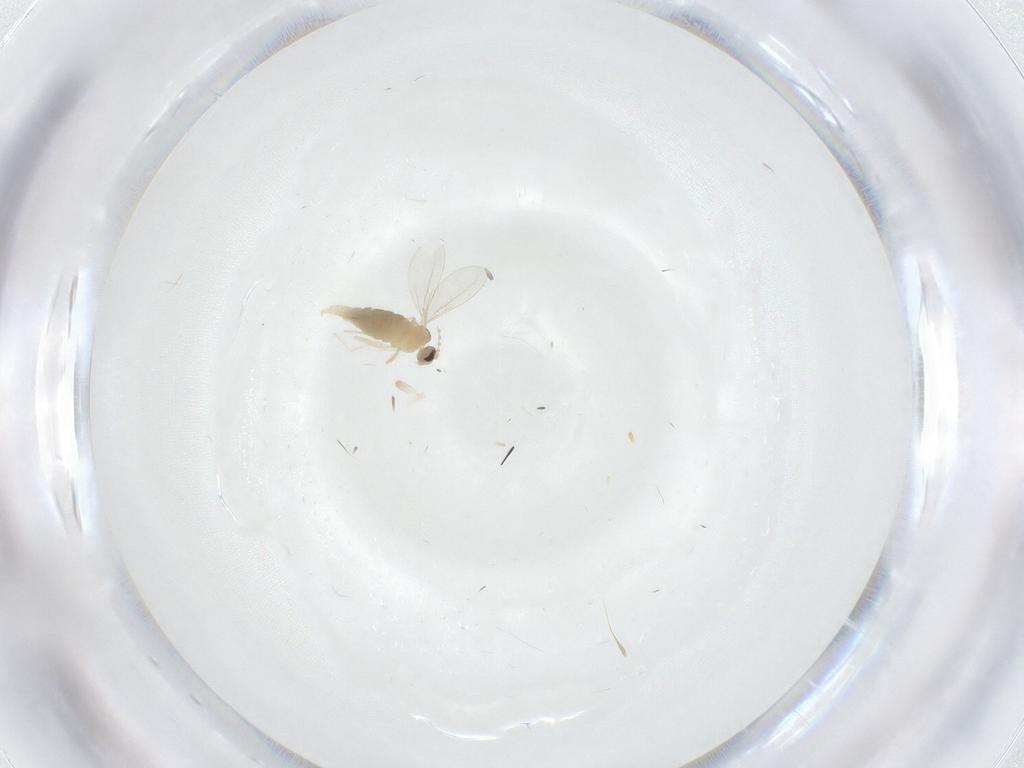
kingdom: Animalia
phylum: Arthropoda
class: Insecta
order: Diptera
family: Cecidomyiidae
